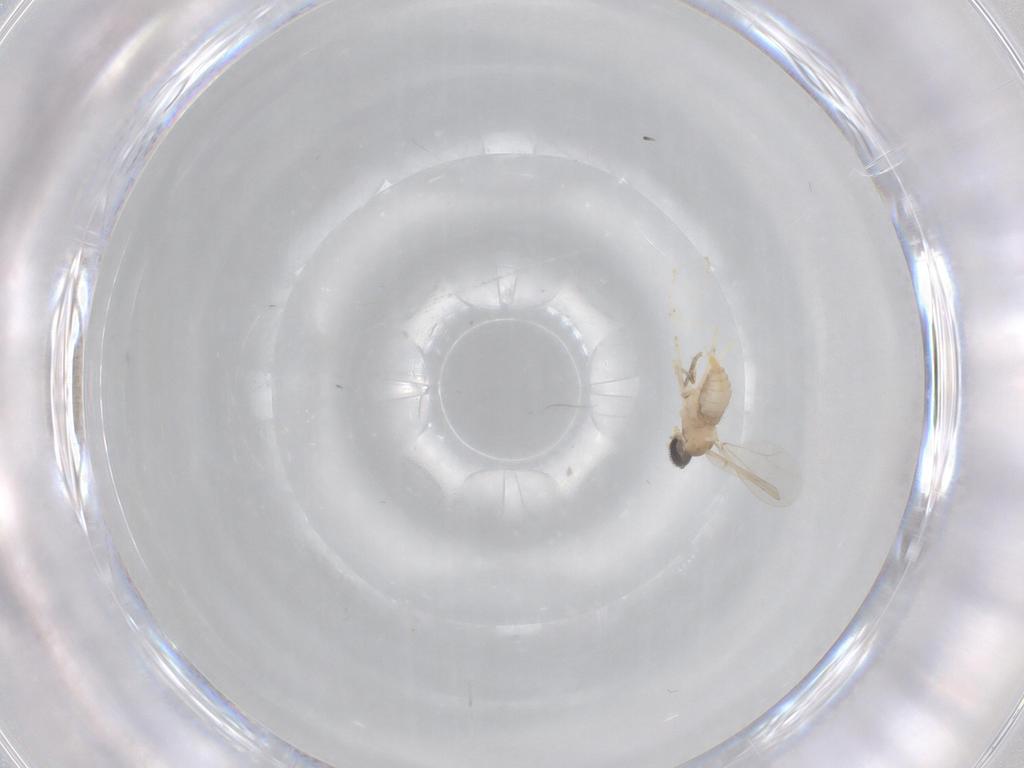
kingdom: Animalia
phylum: Arthropoda
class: Insecta
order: Diptera
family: Cecidomyiidae
